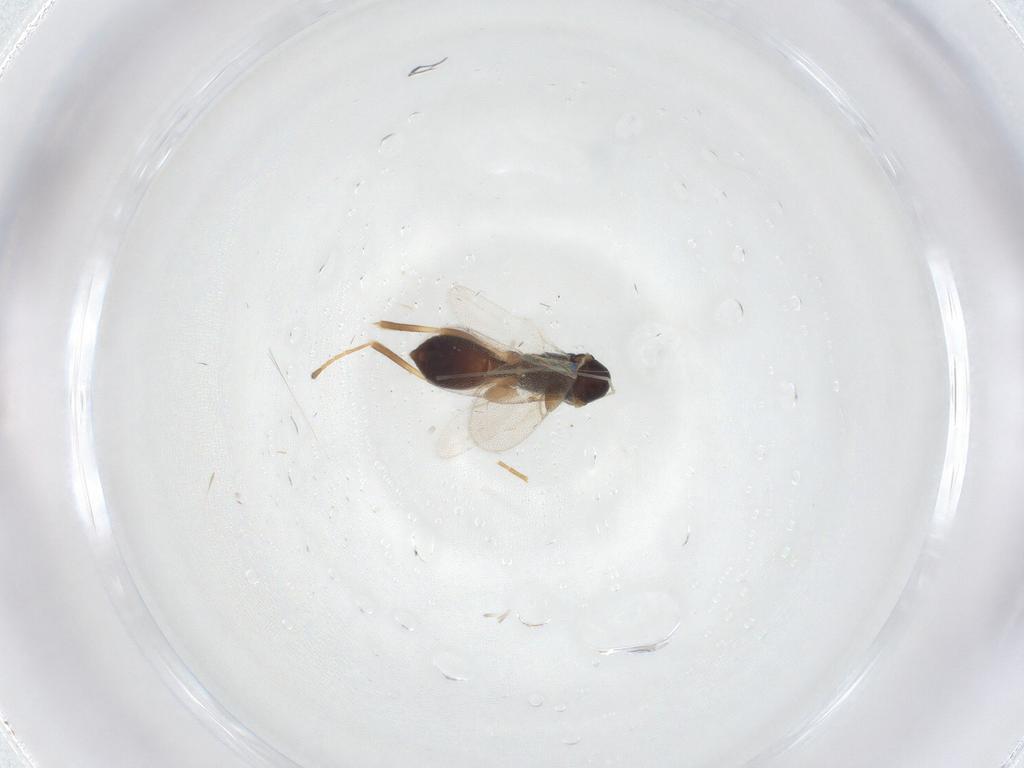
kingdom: Animalia
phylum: Arthropoda
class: Insecta
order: Hymenoptera
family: Braconidae
